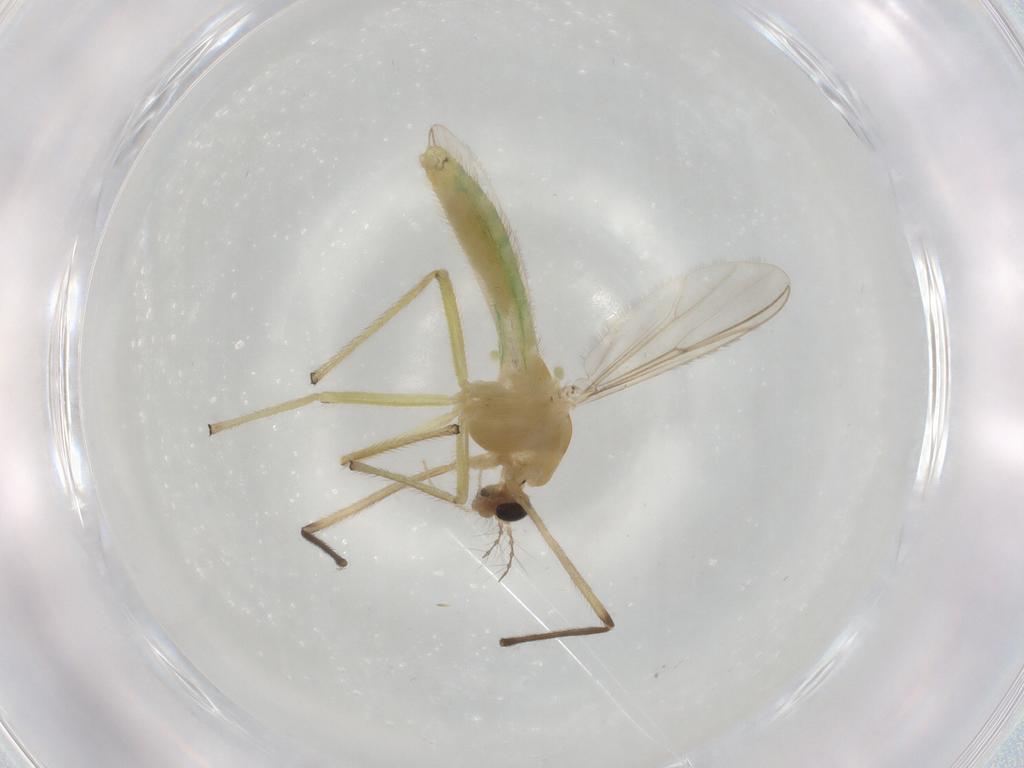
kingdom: Animalia
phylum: Arthropoda
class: Insecta
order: Diptera
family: Chironomidae
